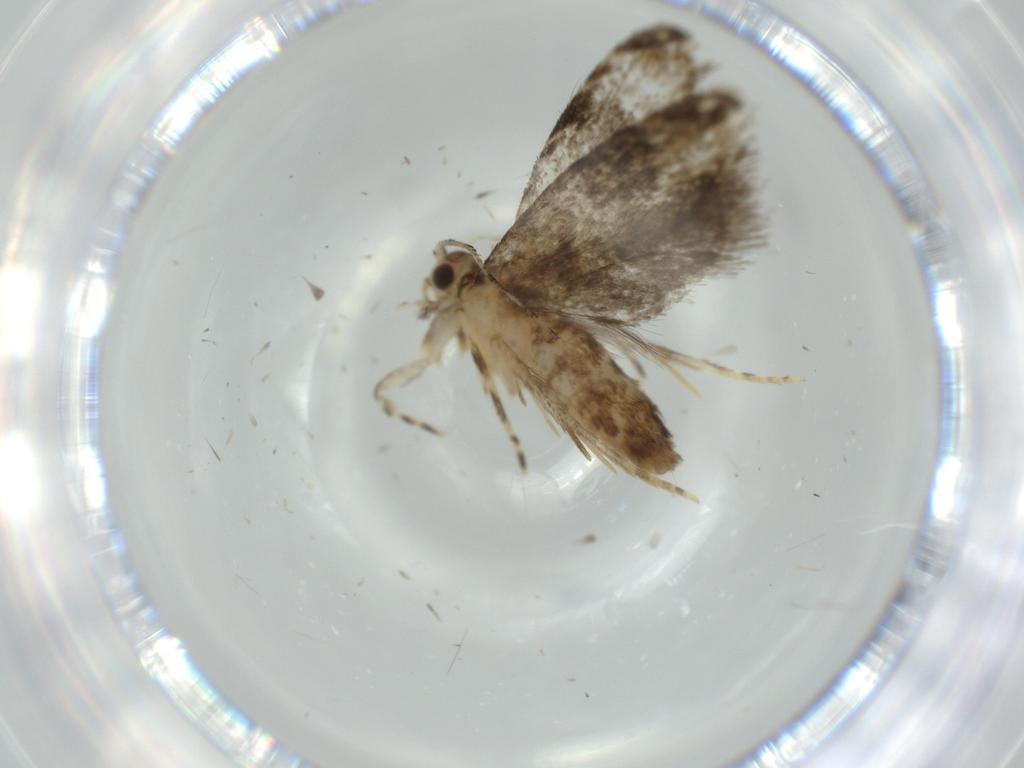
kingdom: Animalia
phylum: Arthropoda
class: Insecta
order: Lepidoptera
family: Tineidae
